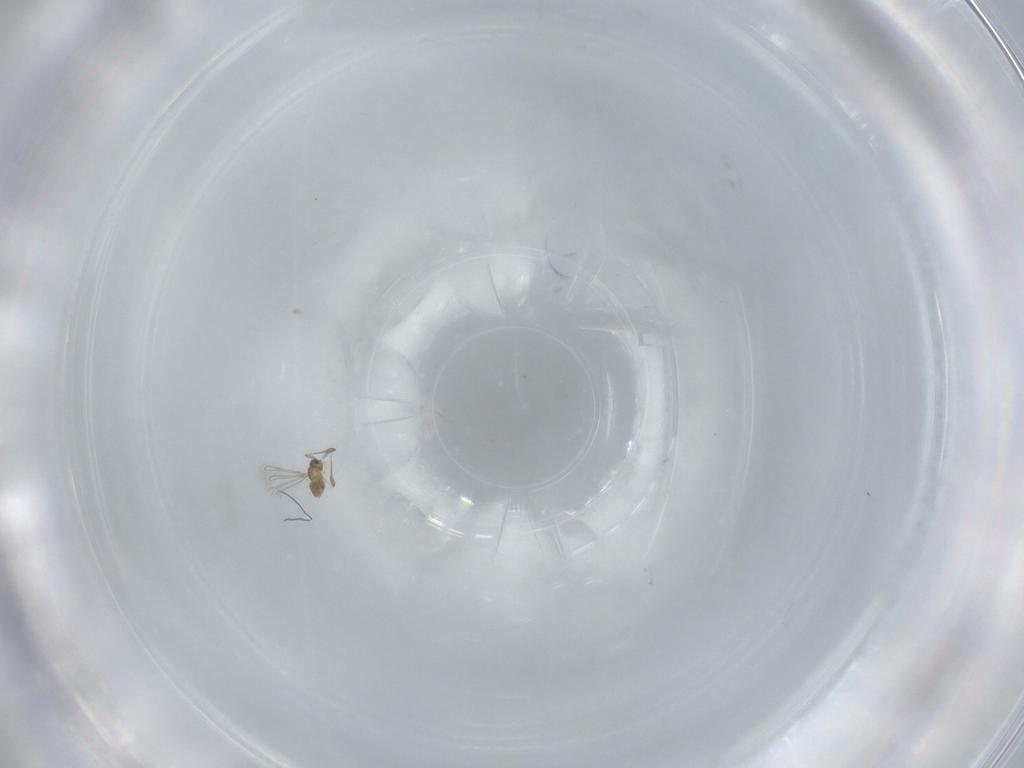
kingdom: Animalia
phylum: Arthropoda
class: Insecta
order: Hymenoptera
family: Mymaridae
